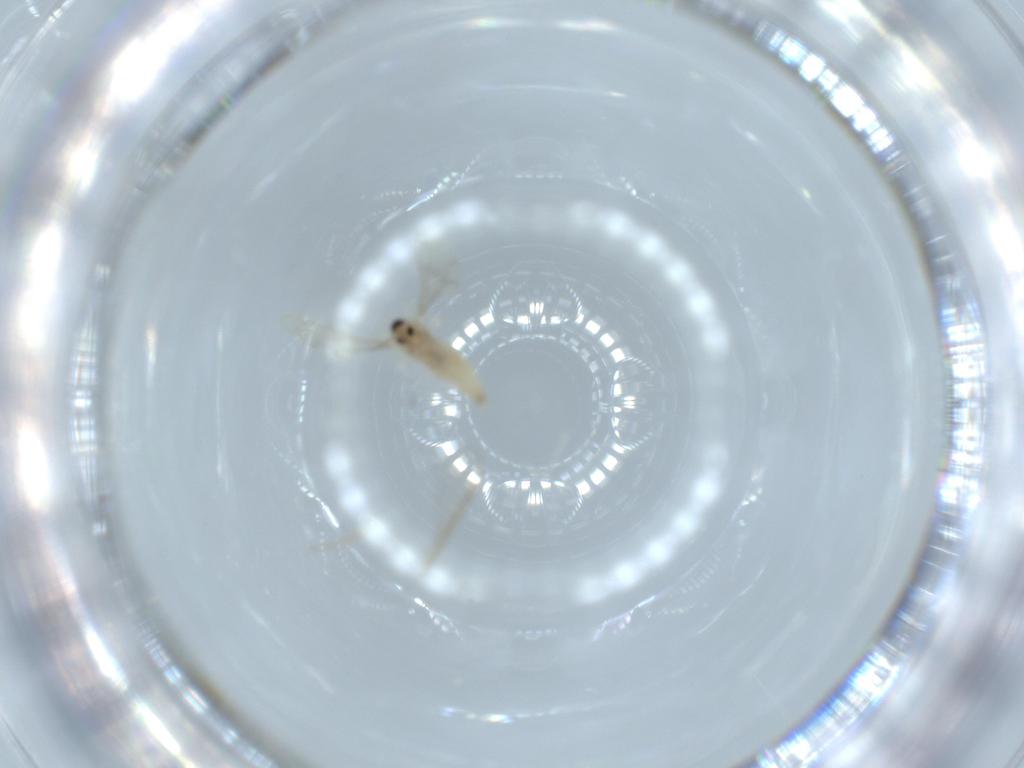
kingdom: Animalia
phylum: Arthropoda
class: Insecta
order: Diptera
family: Cecidomyiidae
